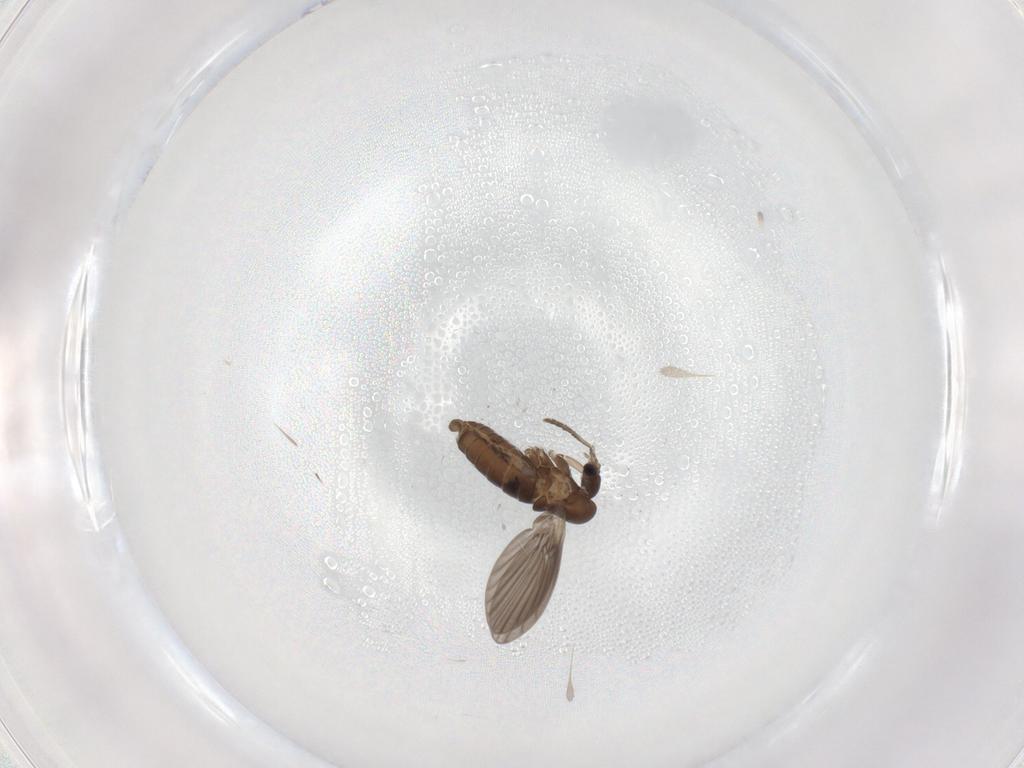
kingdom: Animalia
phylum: Arthropoda
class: Insecta
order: Diptera
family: Psychodidae
